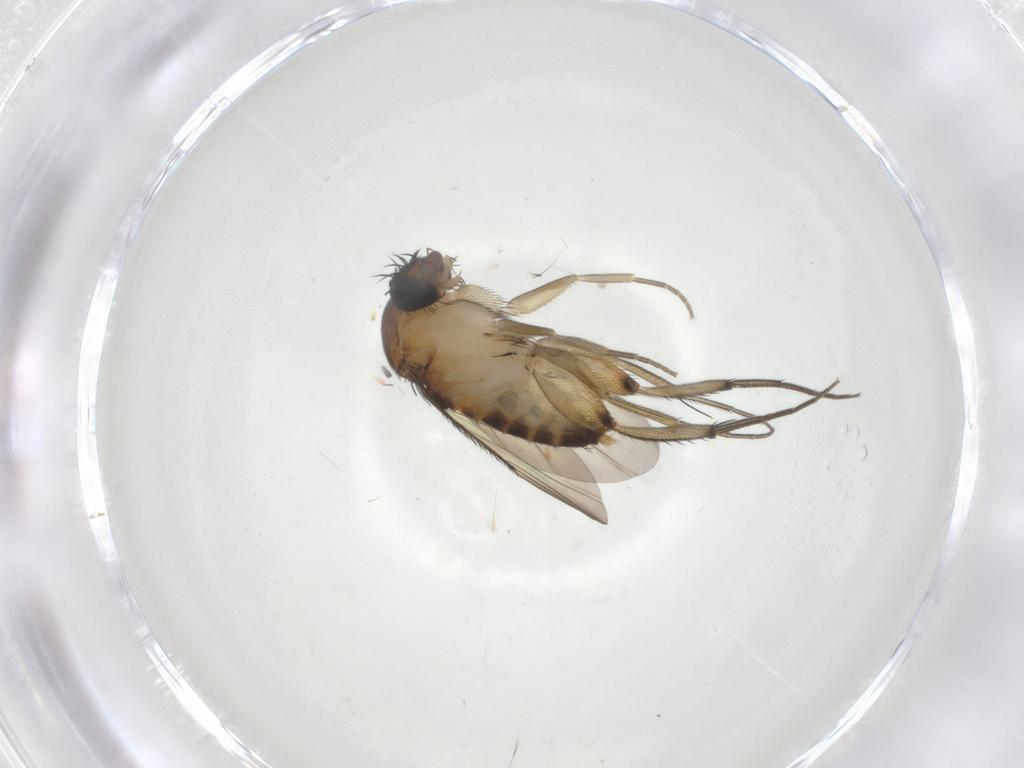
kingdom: Animalia
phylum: Arthropoda
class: Insecta
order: Diptera
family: Phoridae
